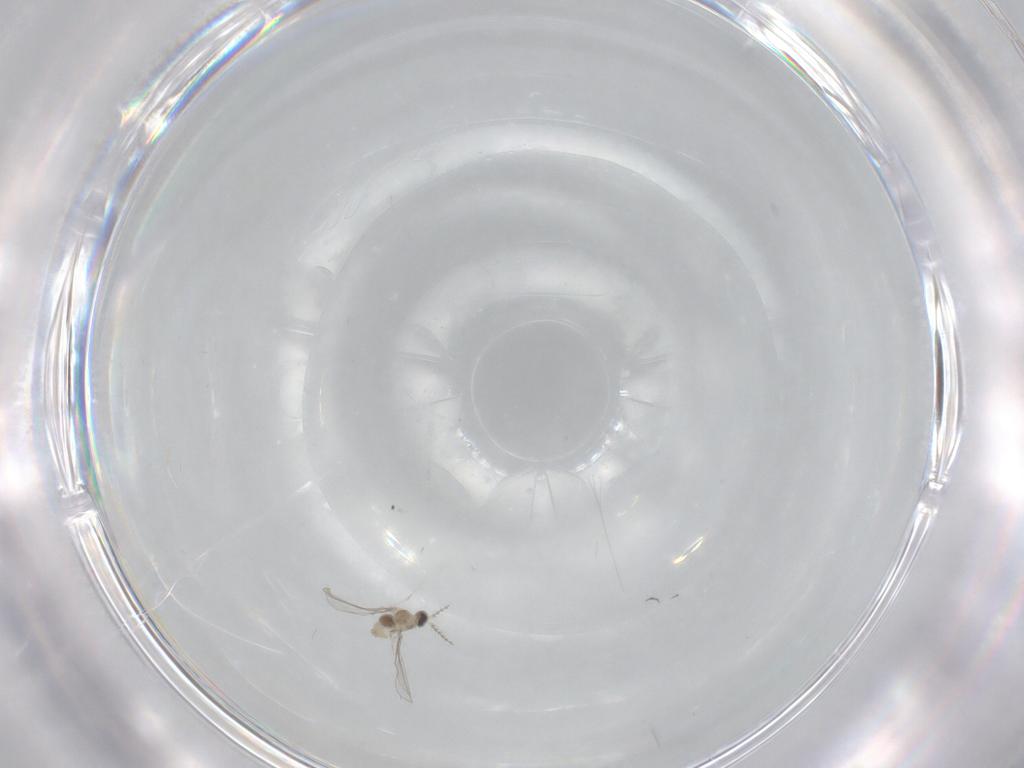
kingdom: Animalia
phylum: Arthropoda
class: Insecta
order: Diptera
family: Cecidomyiidae
